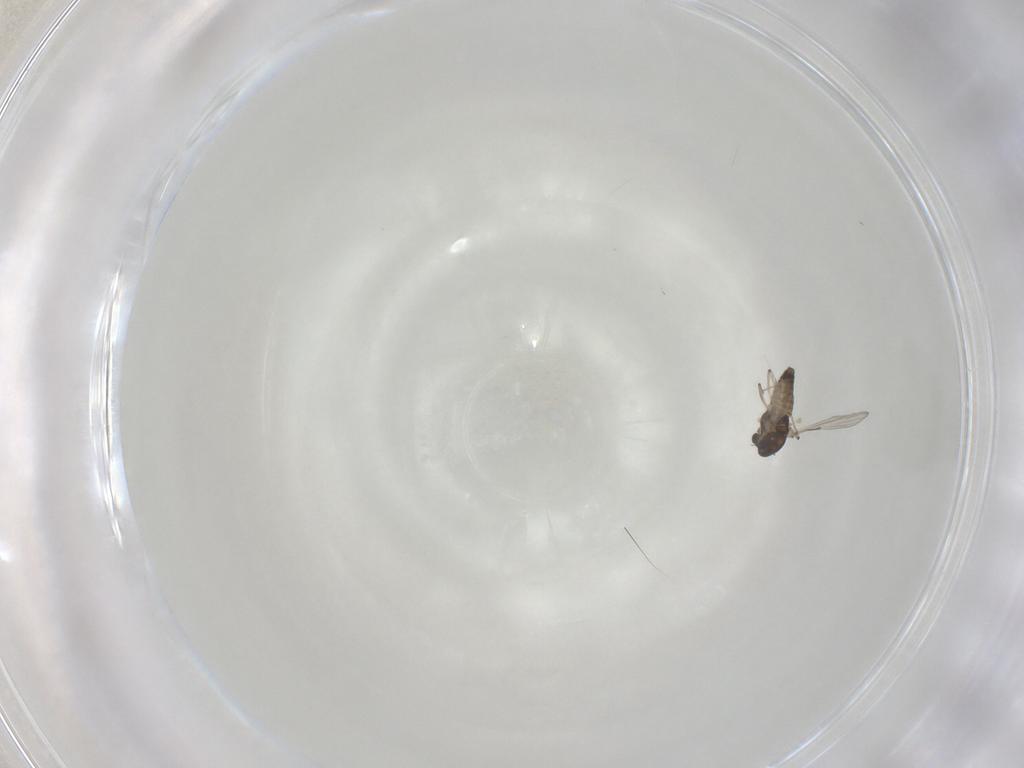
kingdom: Animalia
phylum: Arthropoda
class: Insecta
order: Diptera
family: Chironomidae
